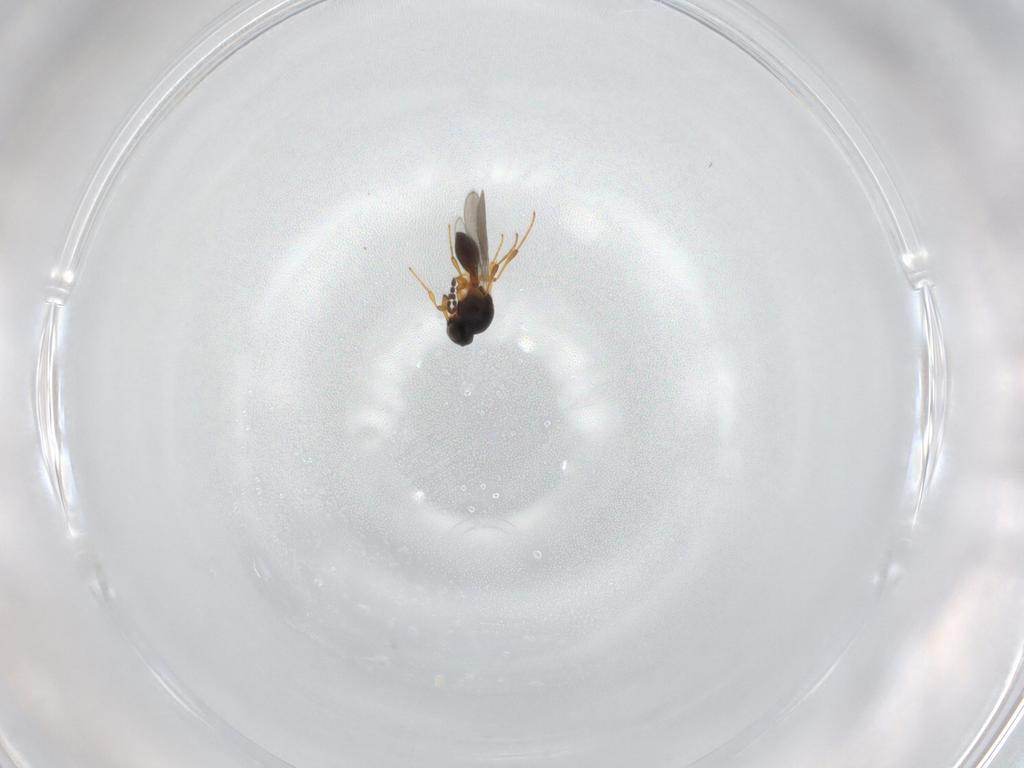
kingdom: Animalia
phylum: Arthropoda
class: Insecta
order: Hymenoptera
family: Platygastridae
